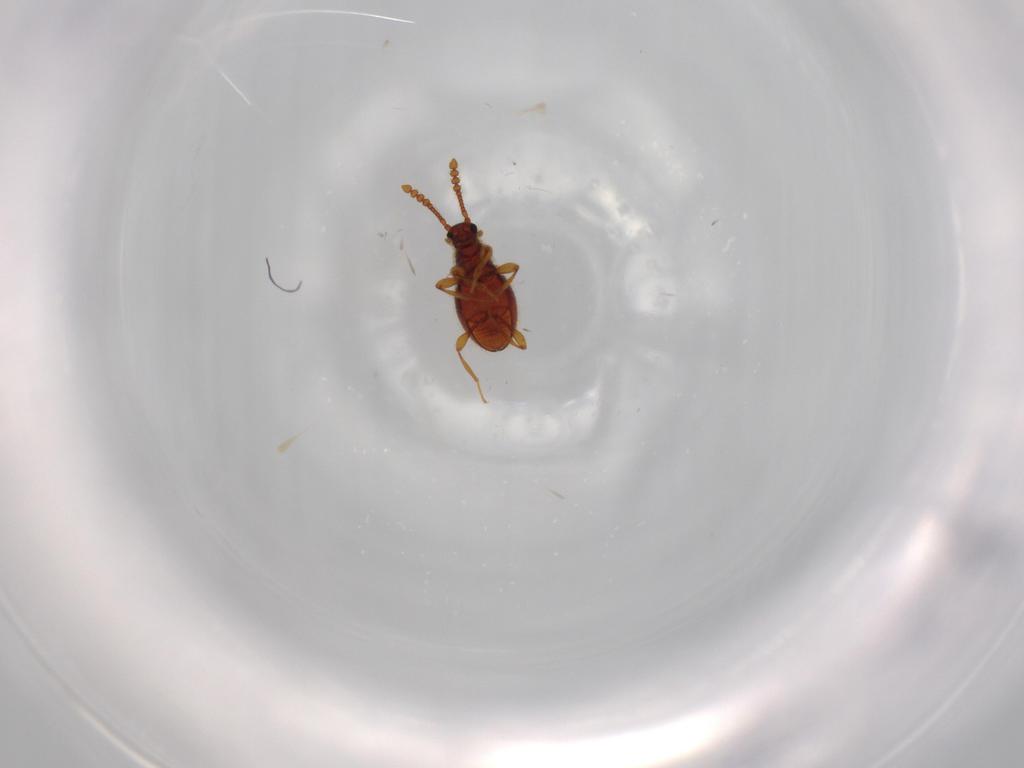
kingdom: Animalia
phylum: Arthropoda
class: Insecta
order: Coleoptera
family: Staphylinidae
